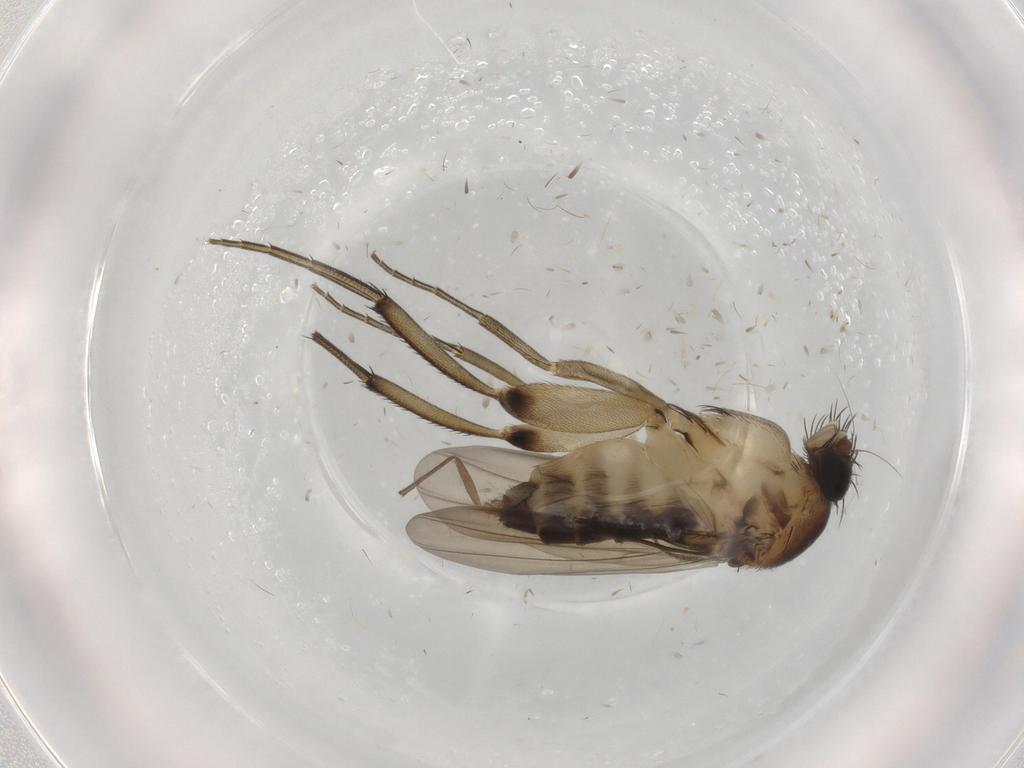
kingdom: Animalia
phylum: Arthropoda
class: Insecta
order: Diptera
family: Phoridae
